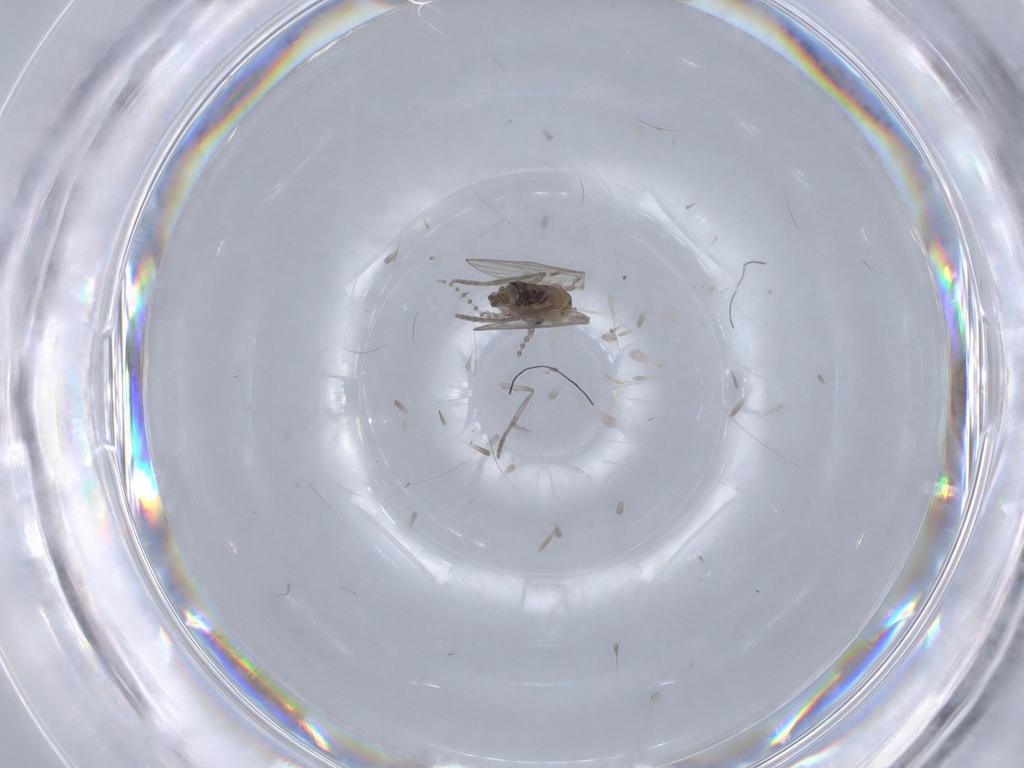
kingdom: Animalia
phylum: Arthropoda
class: Insecta
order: Diptera
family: Psychodidae
